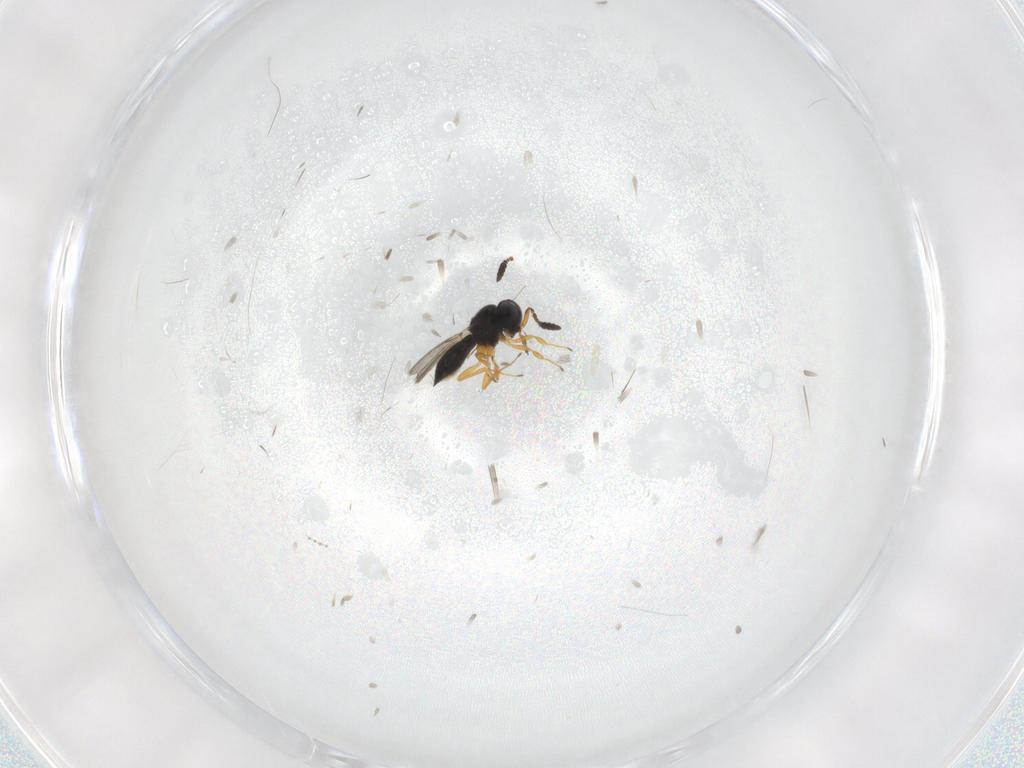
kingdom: Animalia
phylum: Arthropoda
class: Insecta
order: Hymenoptera
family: Scelionidae
